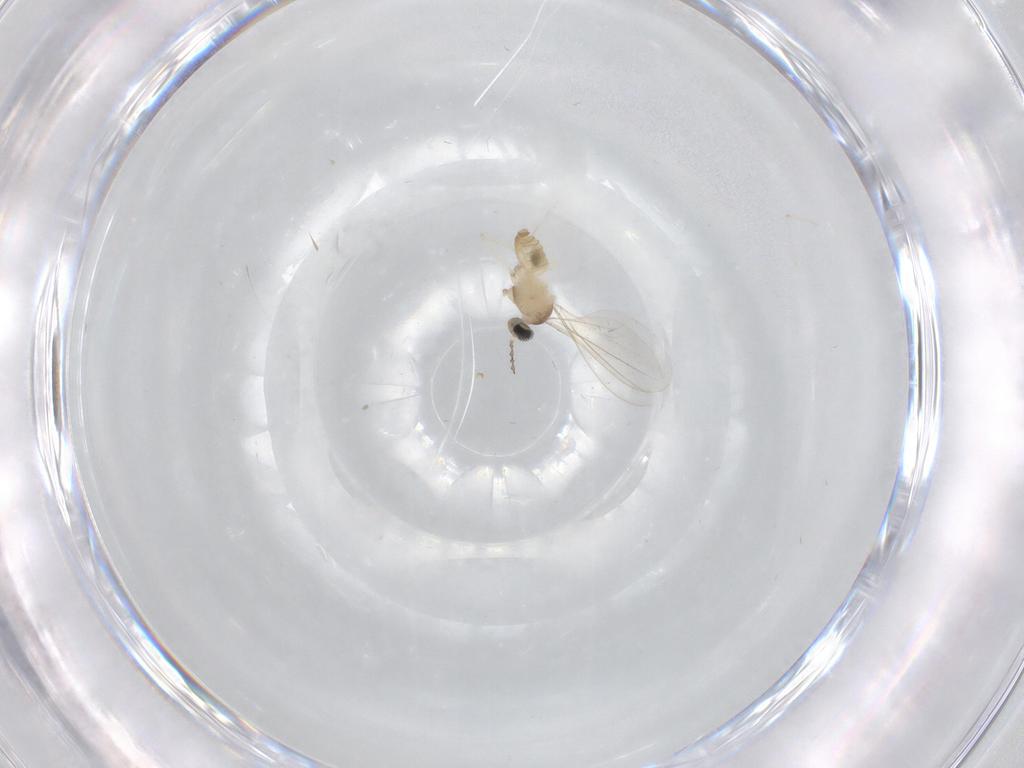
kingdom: Animalia
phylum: Arthropoda
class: Insecta
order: Diptera
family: Cecidomyiidae
